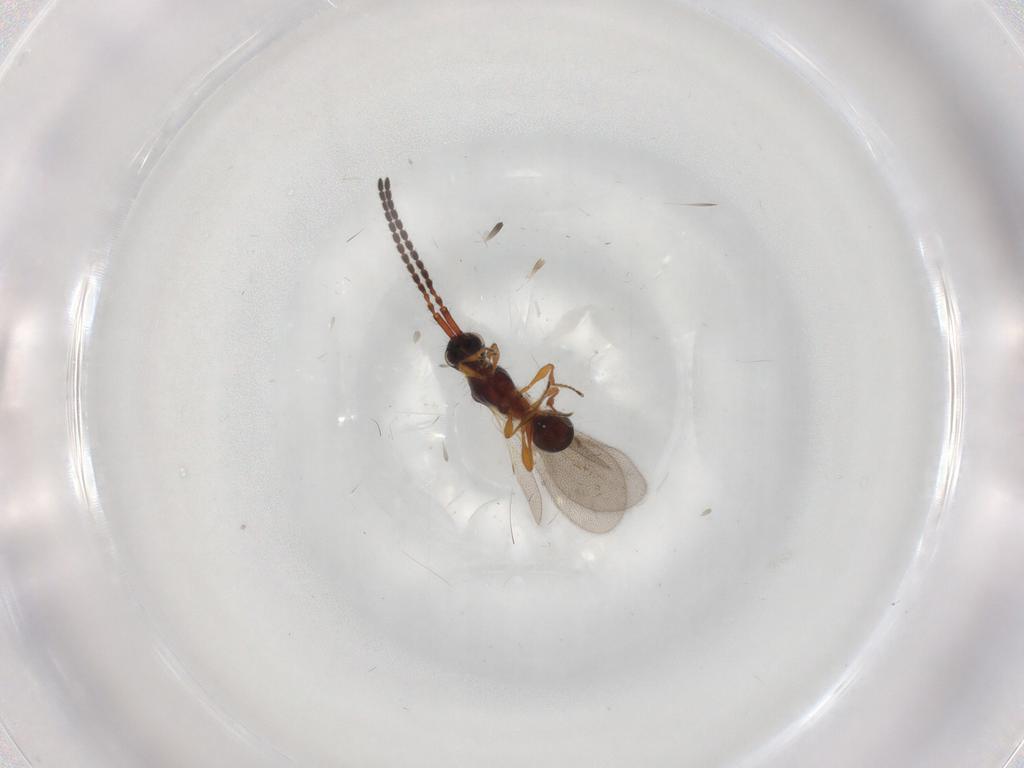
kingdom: Animalia
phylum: Arthropoda
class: Insecta
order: Hymenoptera
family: Diapriidae
